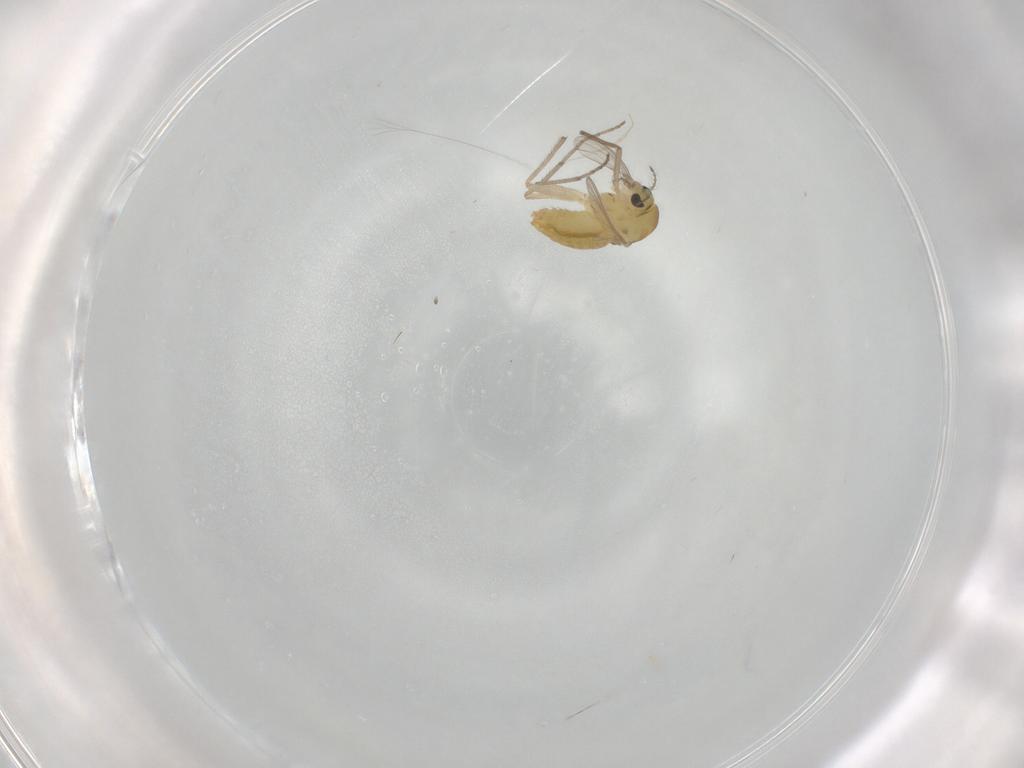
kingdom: Animalia
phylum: Arthropoda
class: Insecta
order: Diptera
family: Chironomidae
